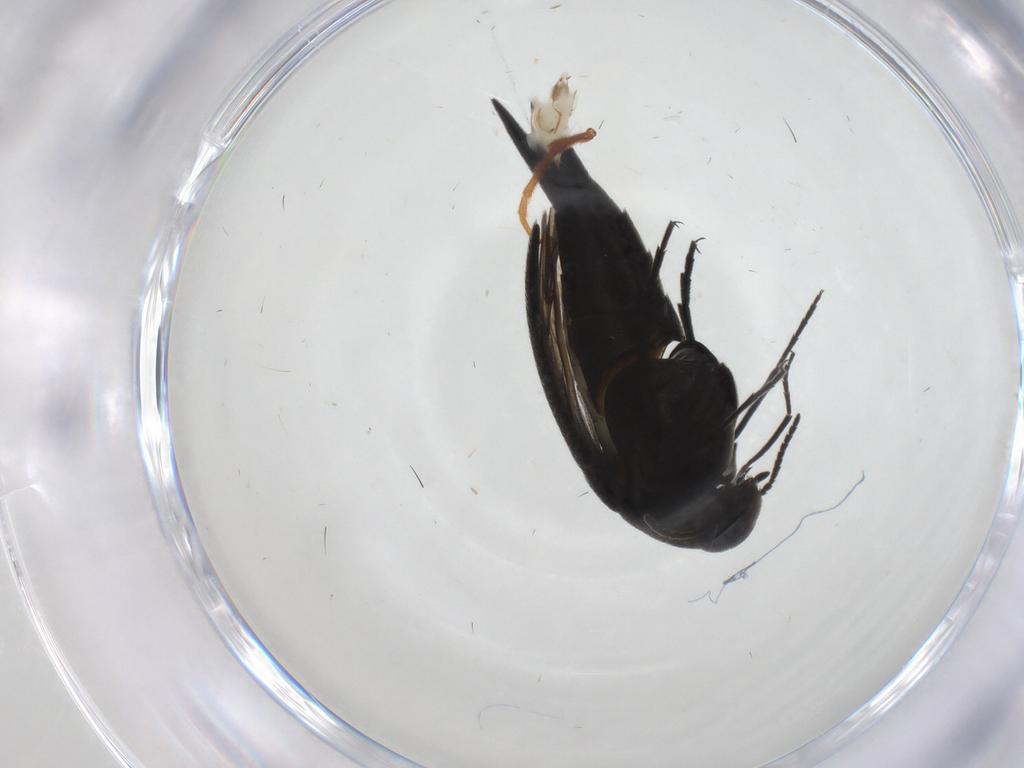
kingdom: Animalia
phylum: Arthropoda
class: Insecta
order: Coleoptera
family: Mordellidae
